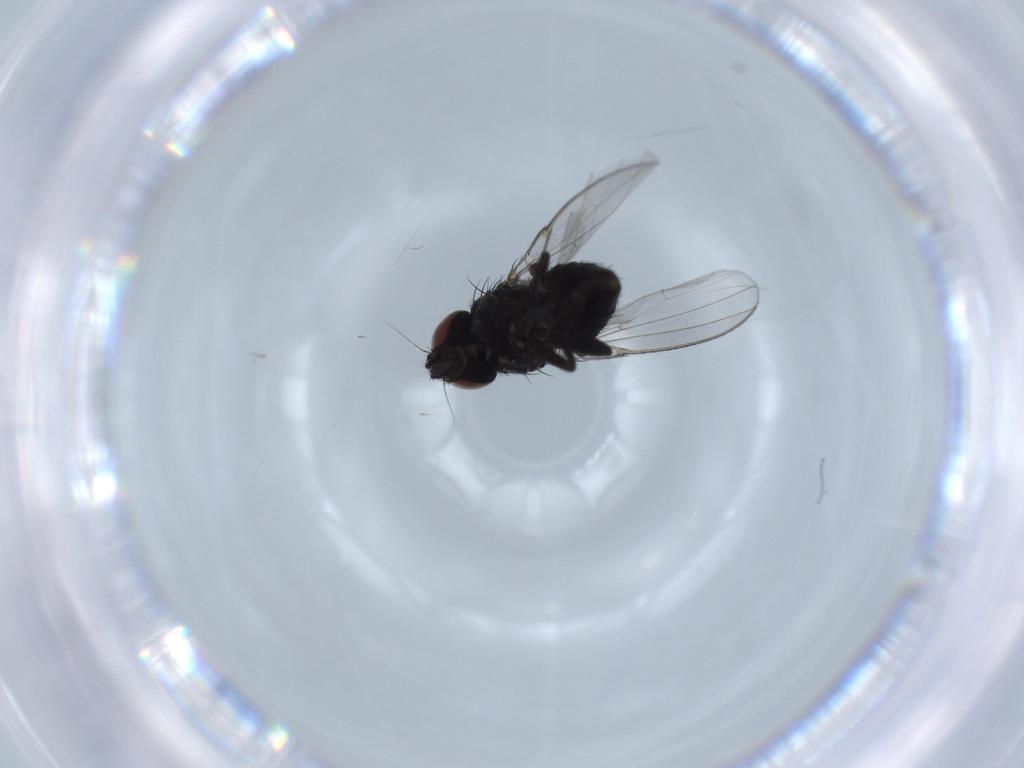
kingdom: Animalia
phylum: Arthropoda
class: Insecta
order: Diptera
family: Milichiidae
